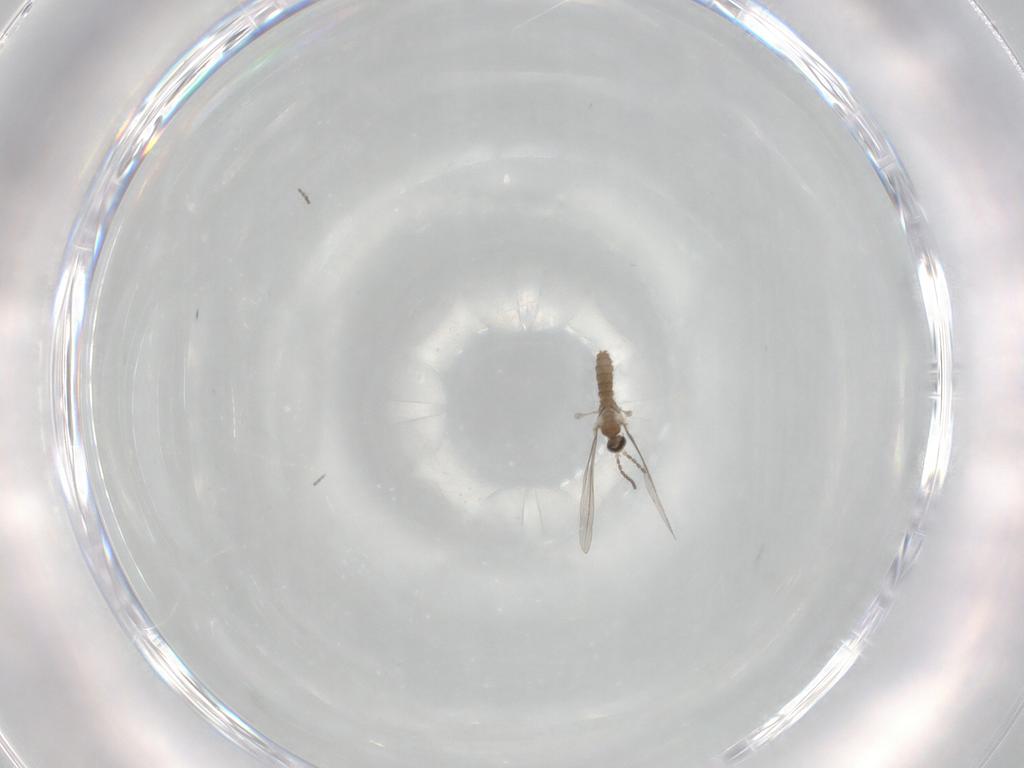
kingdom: Animalia
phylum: Arthropoda
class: Insecta
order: Diptera
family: Cecidomyiidae
